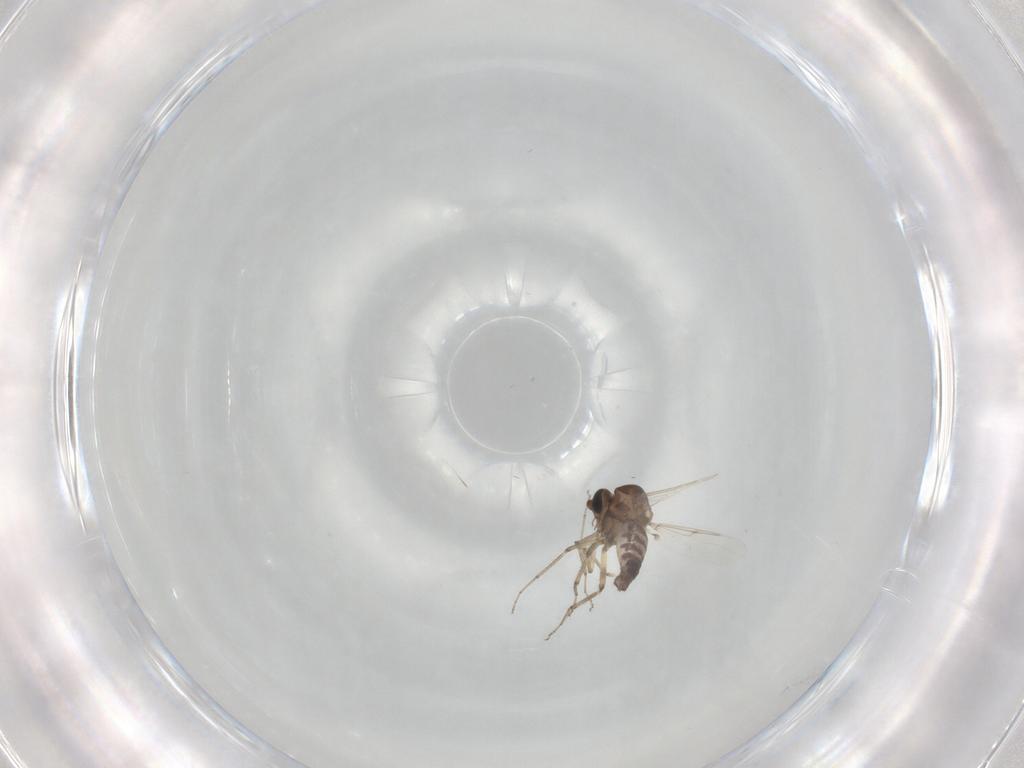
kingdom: Animalia
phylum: Arthropoda
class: Insecta
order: Diptera
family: Ceratopogonidae
